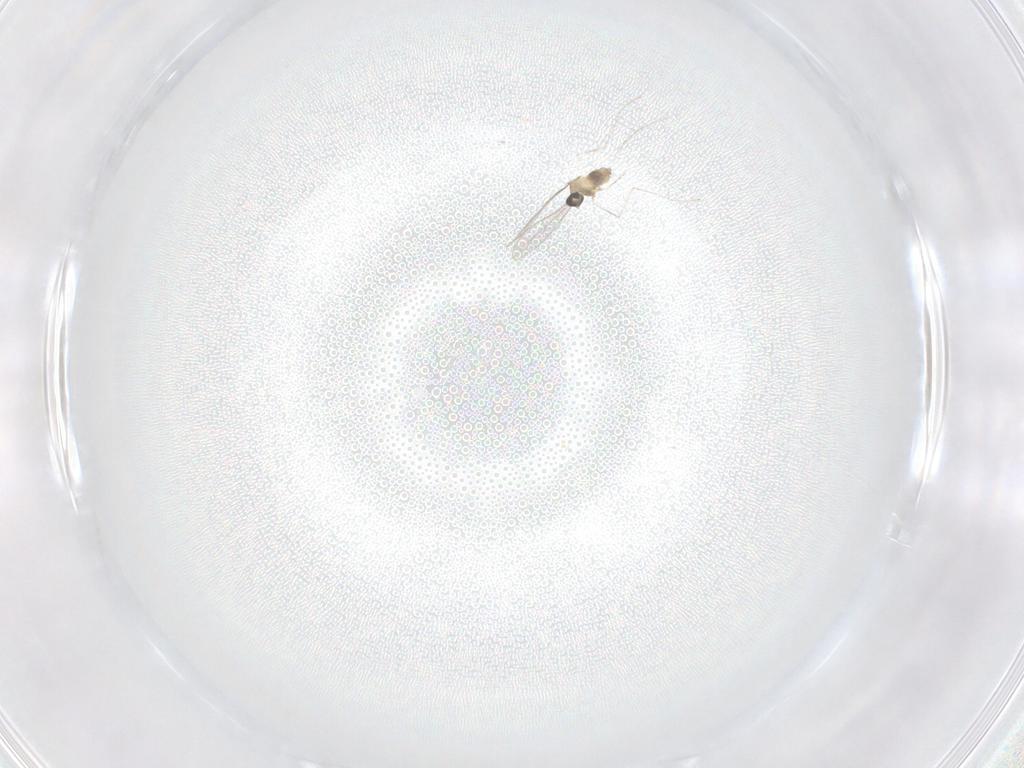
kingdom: Animalia
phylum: Arthropoda
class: Insecta
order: Diptera
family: Cecidomyiidae
